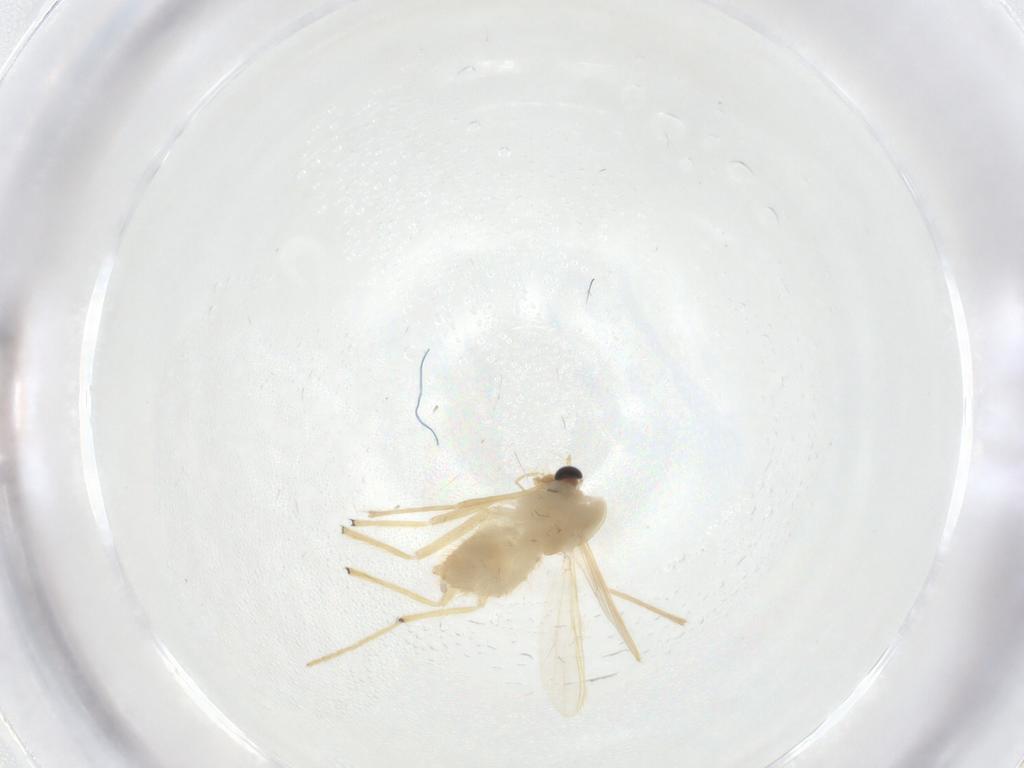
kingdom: Animalia
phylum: Arthropoda
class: Insecta
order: Diptera
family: Chironomidae
